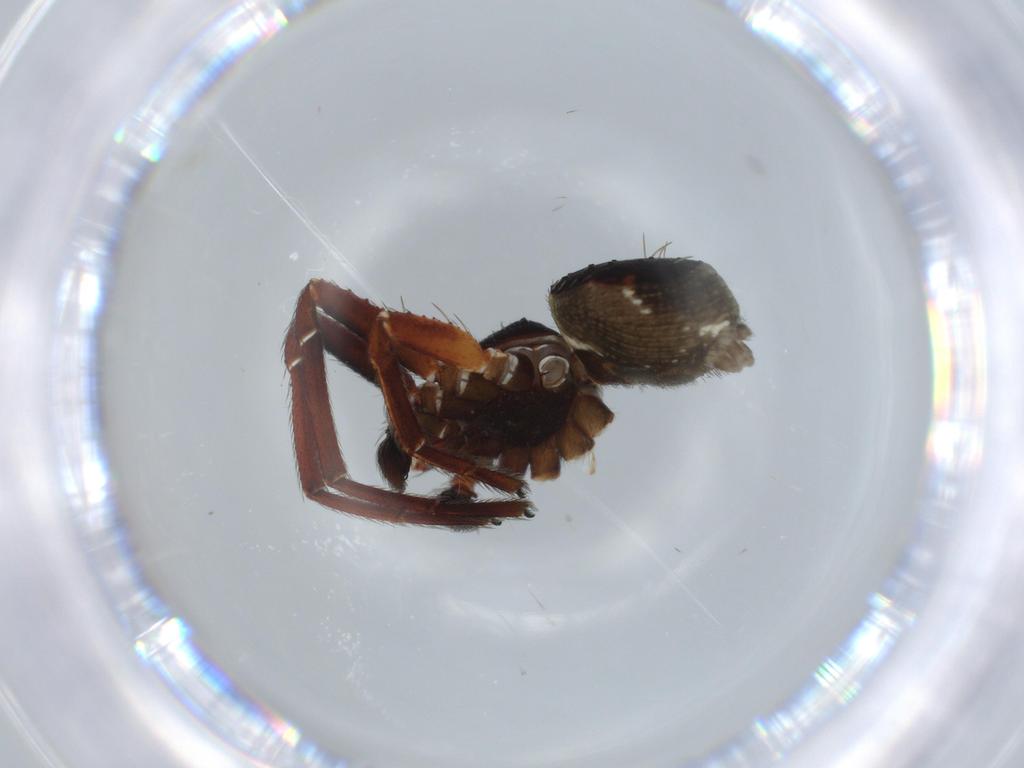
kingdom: Animalia
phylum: Arthropoda
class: Arachnida
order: Araneae
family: Thomisidae
